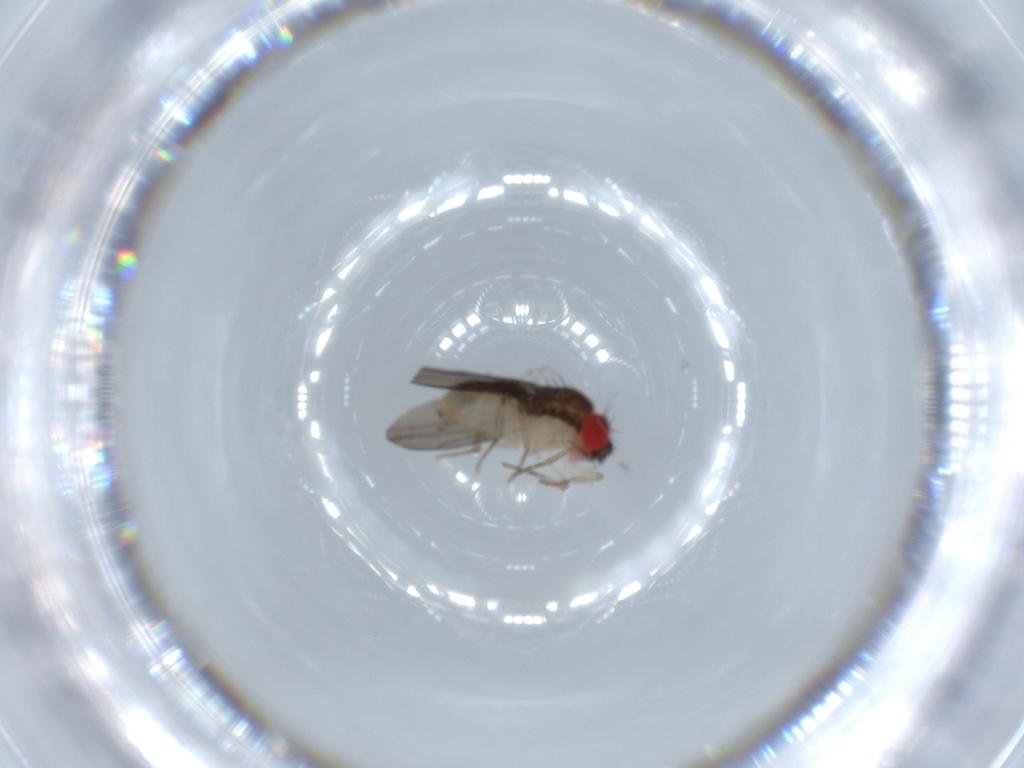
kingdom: Animalia
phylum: Arthropoda
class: Insecta
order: Diptera
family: Drosophilidae
